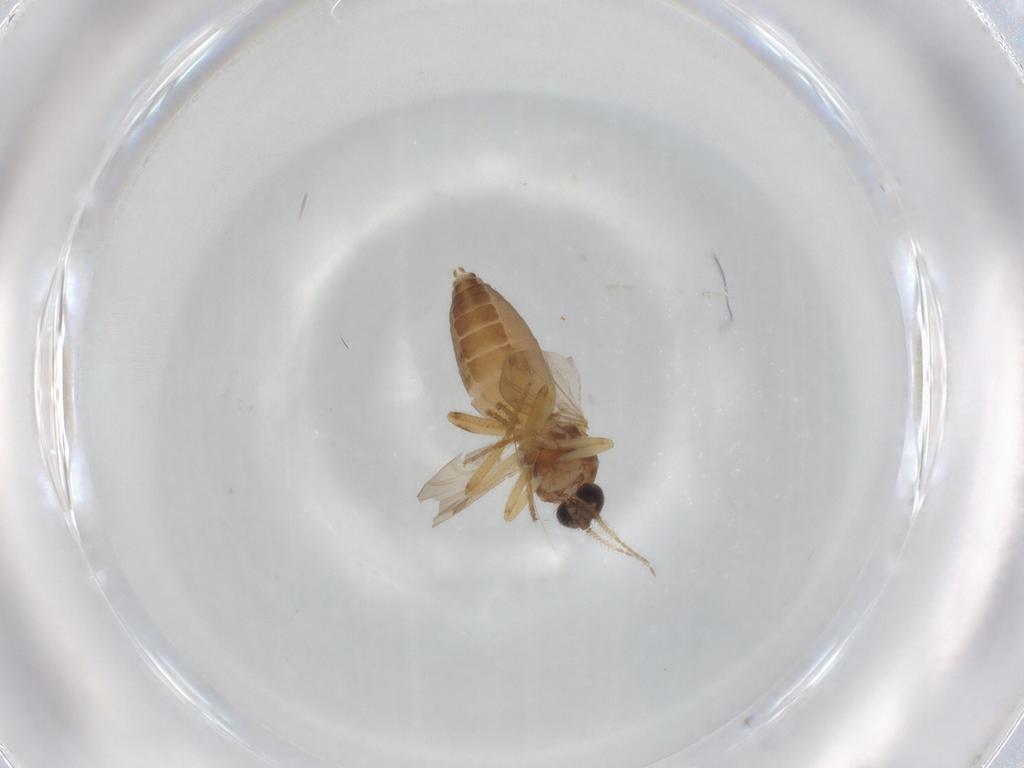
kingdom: Animalia
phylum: Arthropoda
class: Insecta
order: Diptera
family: Ceratopogonidae
